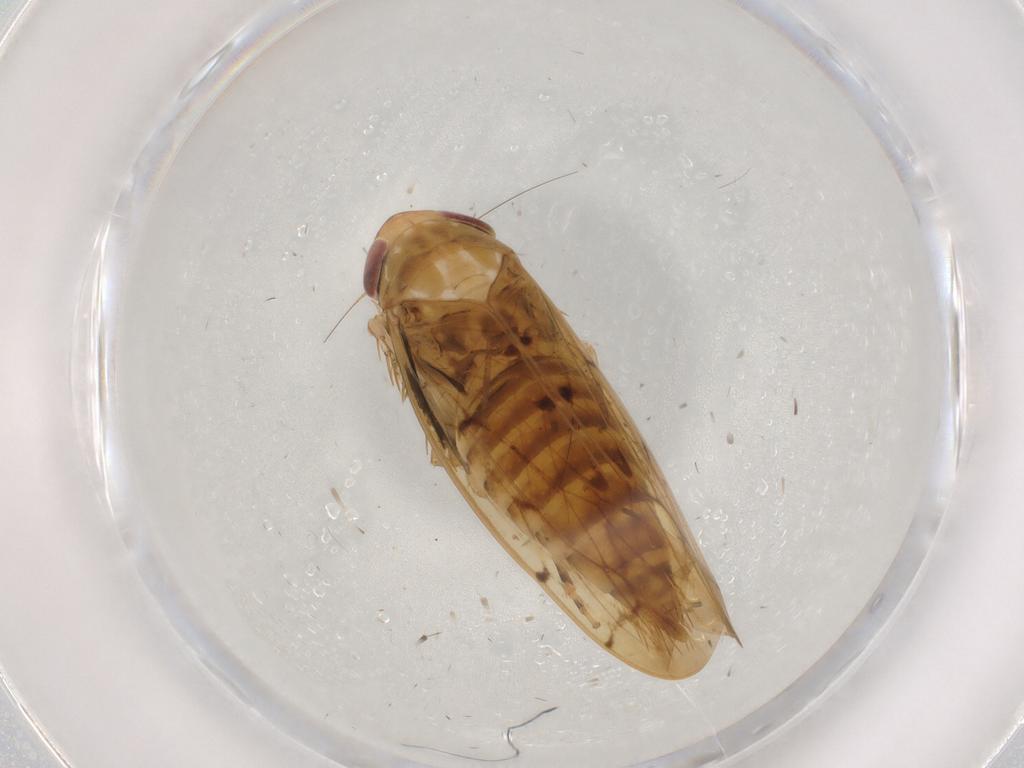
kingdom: Animalia
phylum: Arthropoda
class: Insecta
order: Hemiptera
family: Cicadellidae
